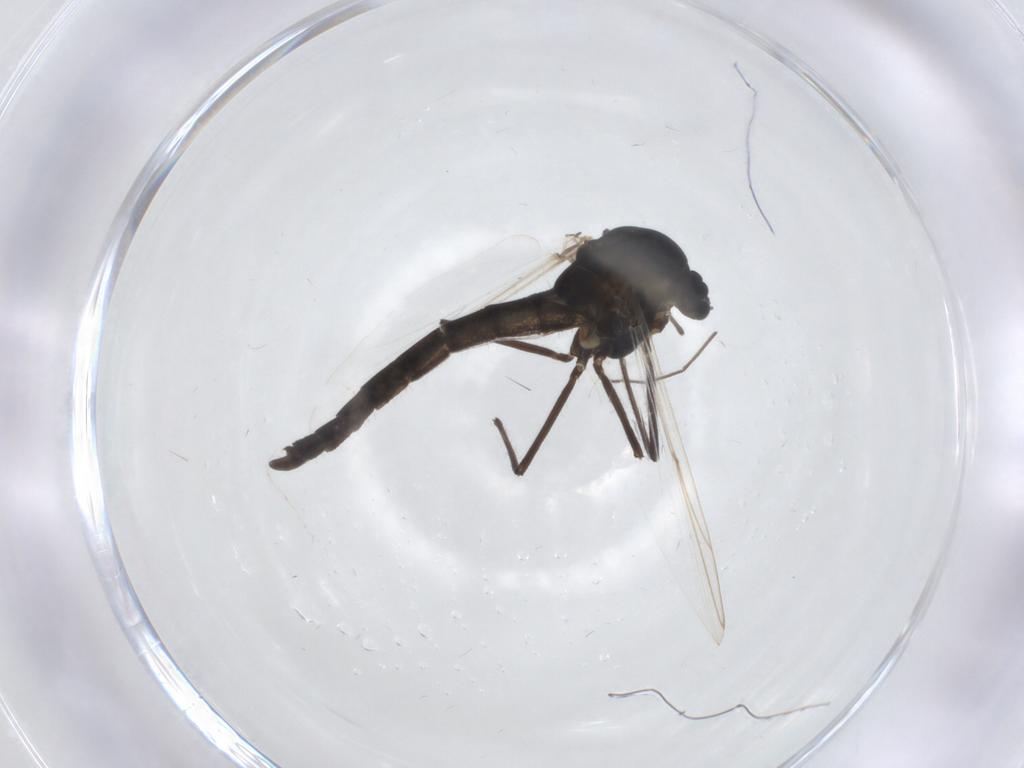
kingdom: Animalia
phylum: Arthropoda
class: Insecta
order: Diptera
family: Chironomidae
